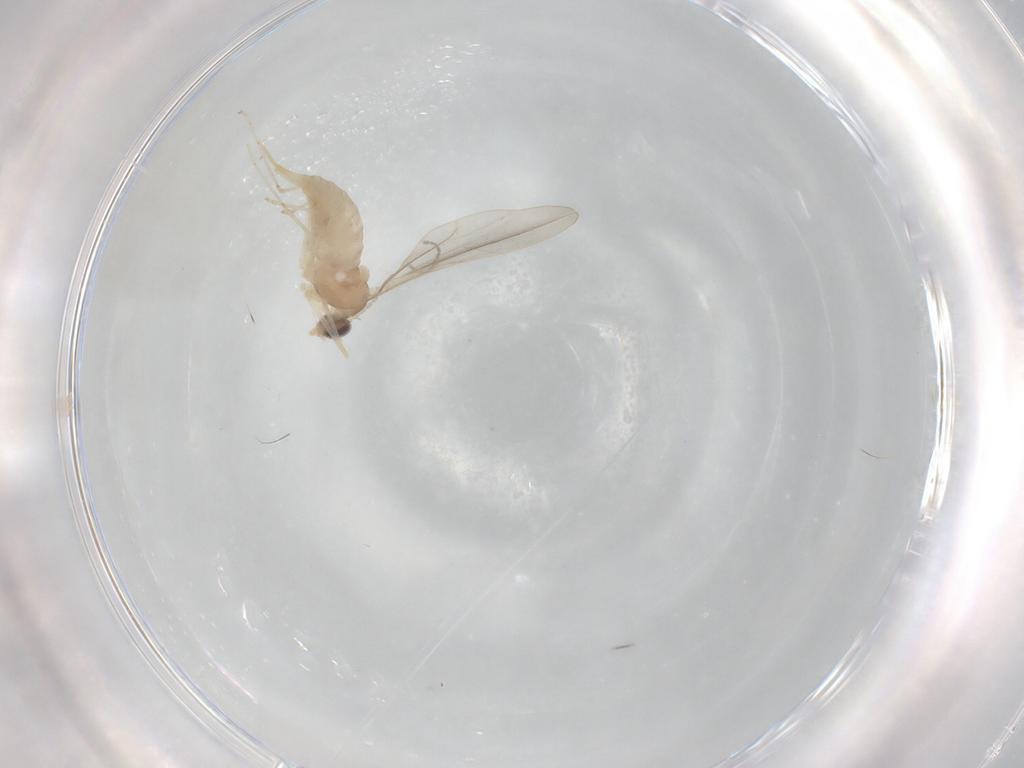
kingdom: Animalia
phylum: Arthropoda
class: Insecta
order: Diptera
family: Cecidomyiidae
